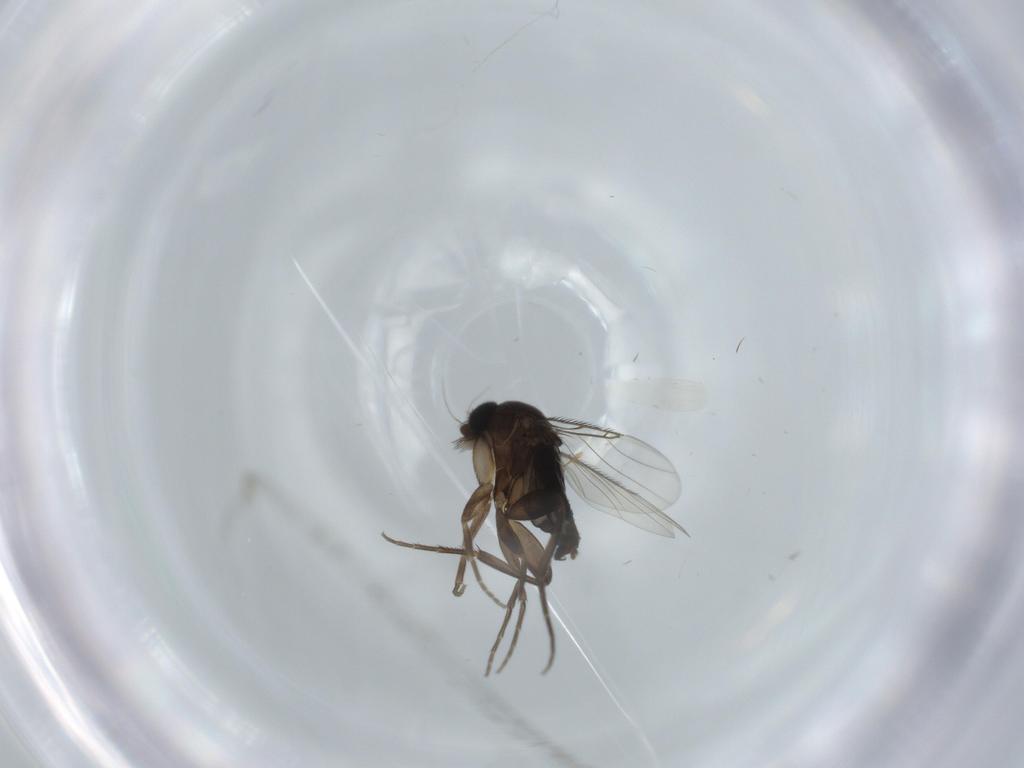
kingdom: Animalia
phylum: Arthropoda
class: Insecta
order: Diptera
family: Phoridae
